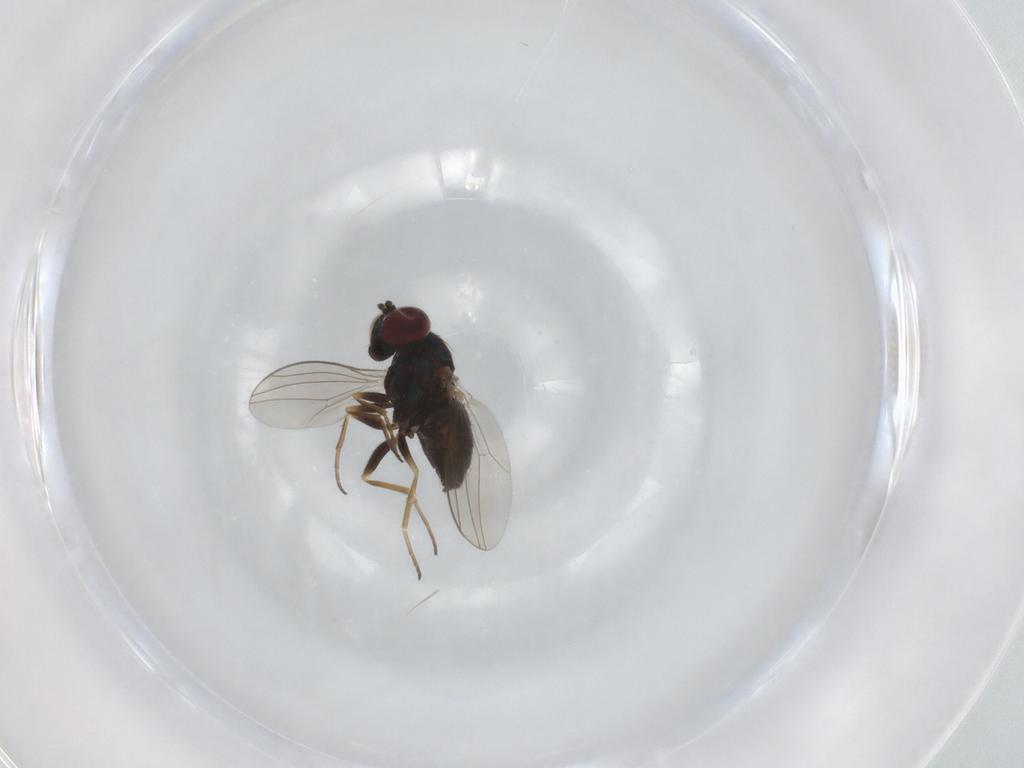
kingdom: Animalia
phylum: Arthropoda
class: Insecta
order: Diptera
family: Dolichopodidae
